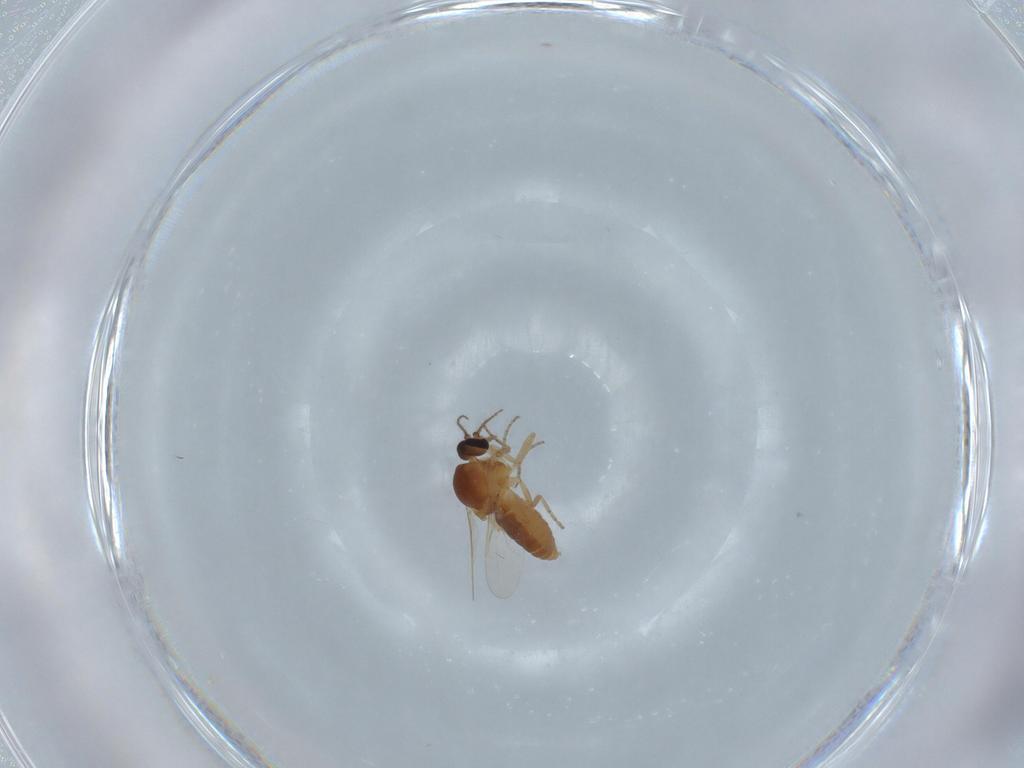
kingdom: Animalia
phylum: Arthropoda
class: Insecta
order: Diptera
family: Ceratopogonidae
